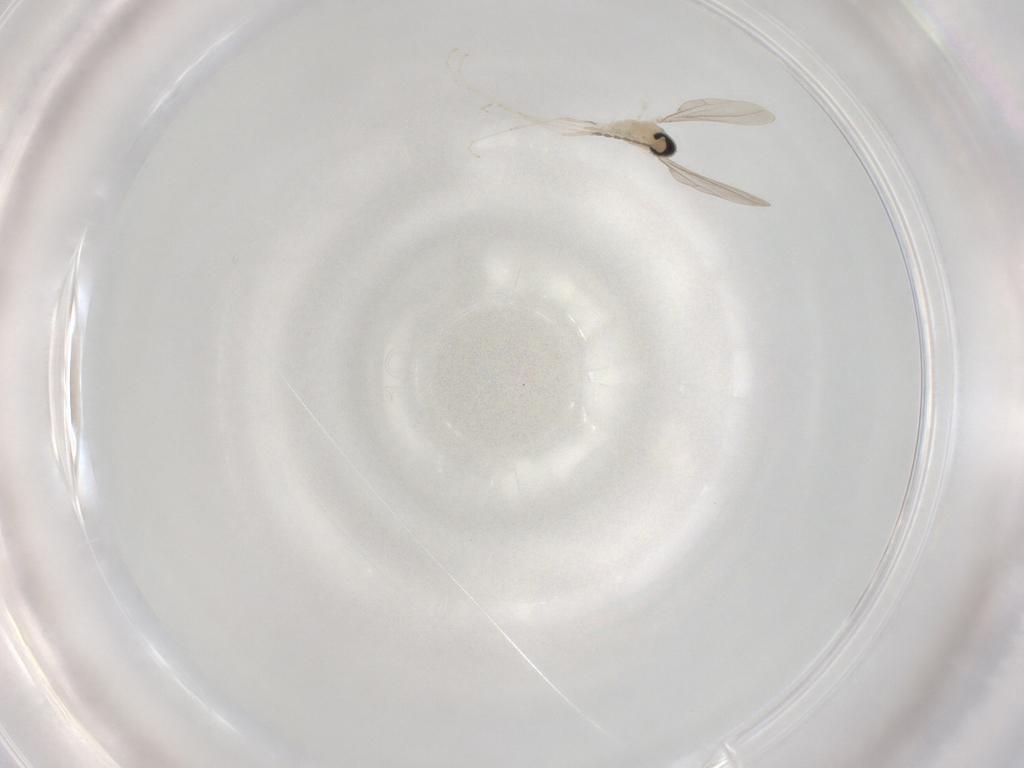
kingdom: Animalia
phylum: Arthropoda
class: Insecta
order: Diptera
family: Cecidomyiidae
